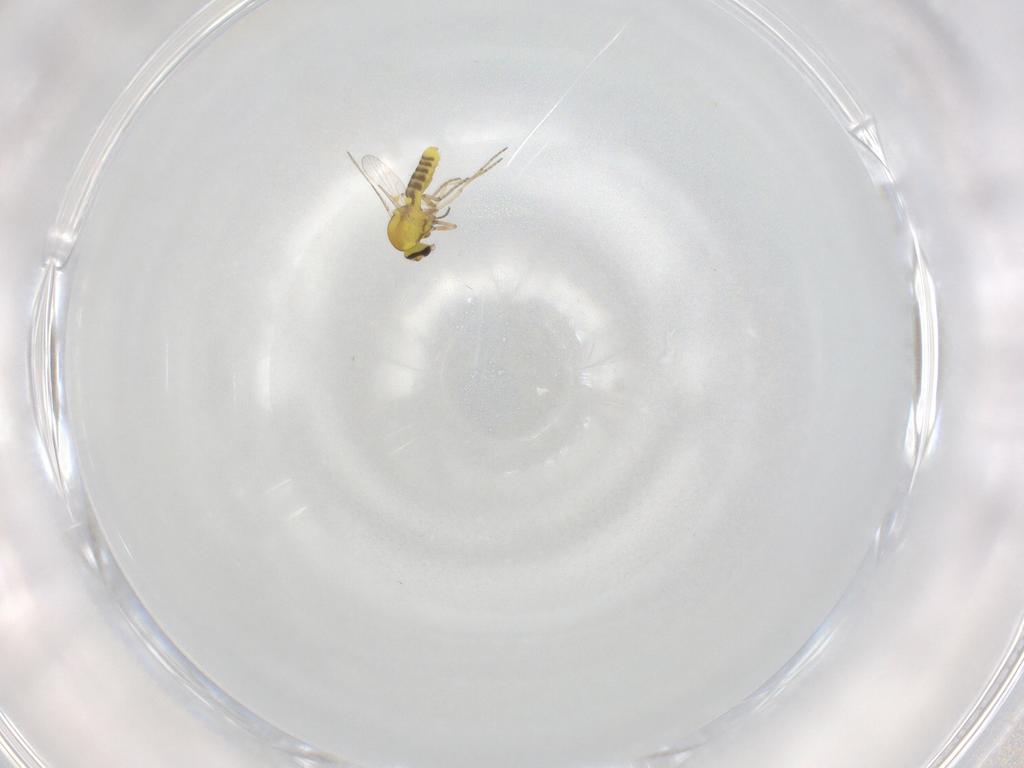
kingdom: Animalia
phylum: Arthropoda
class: Insecta
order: Diptera
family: Ceratopogonidae
